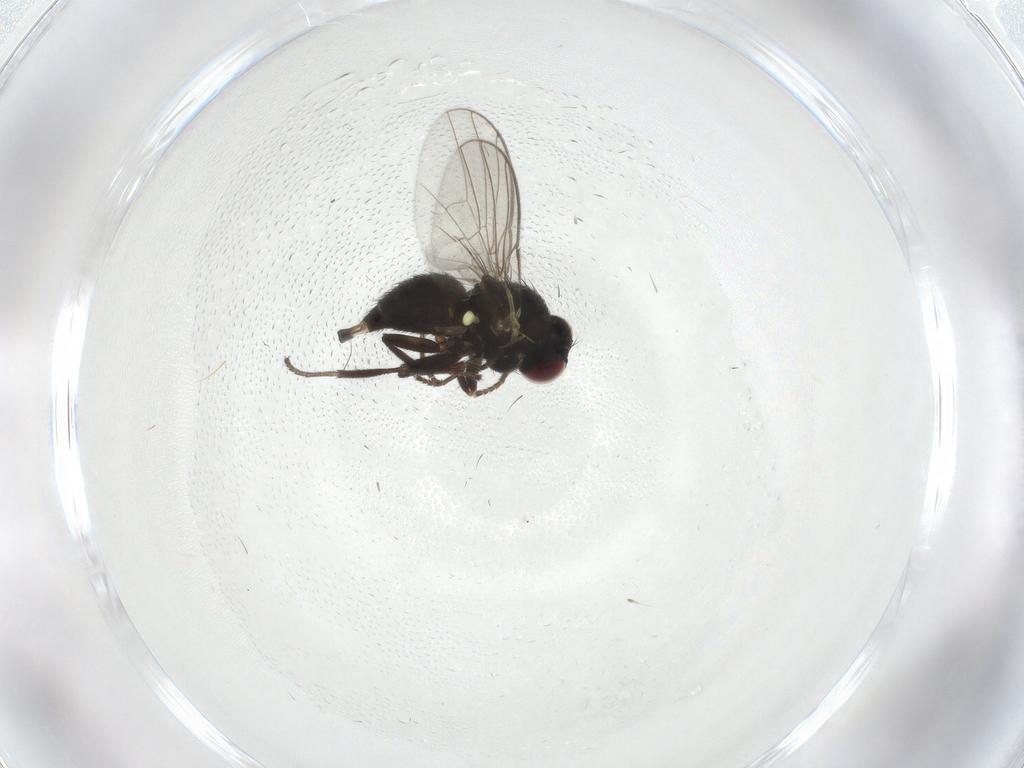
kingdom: Animalia
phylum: Arthropoda
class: Insecta
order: Diptera
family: Agromyzidae
